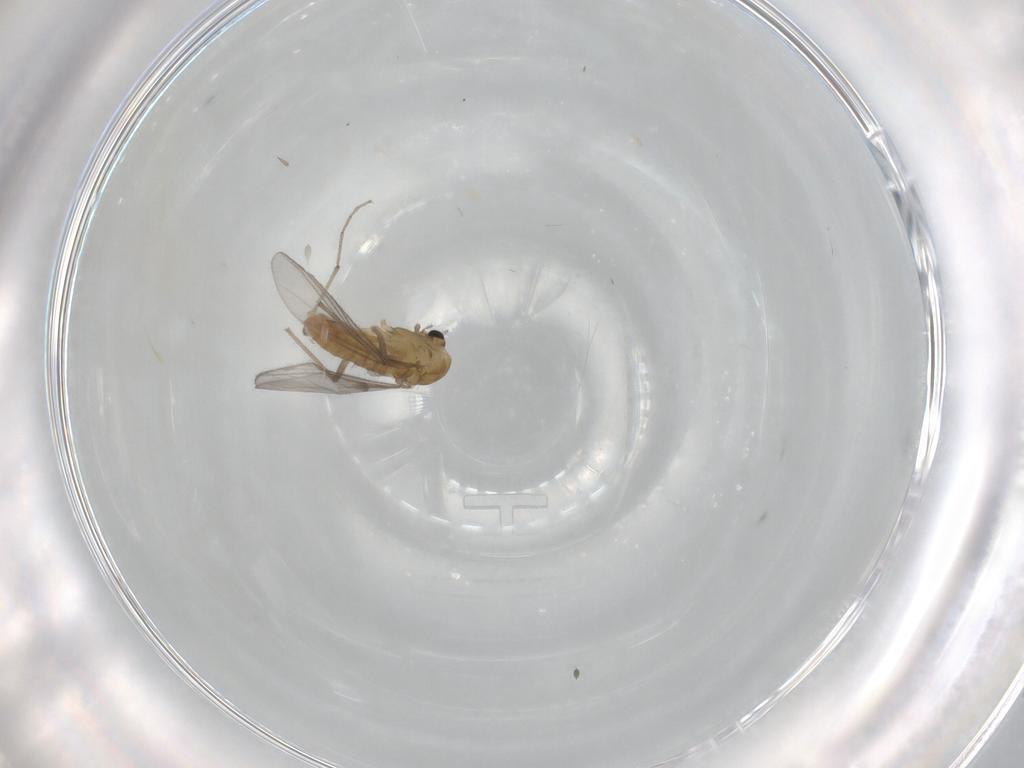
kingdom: Animalia
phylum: Arthropoda
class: Insecta
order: Diptera
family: Chironomidae
